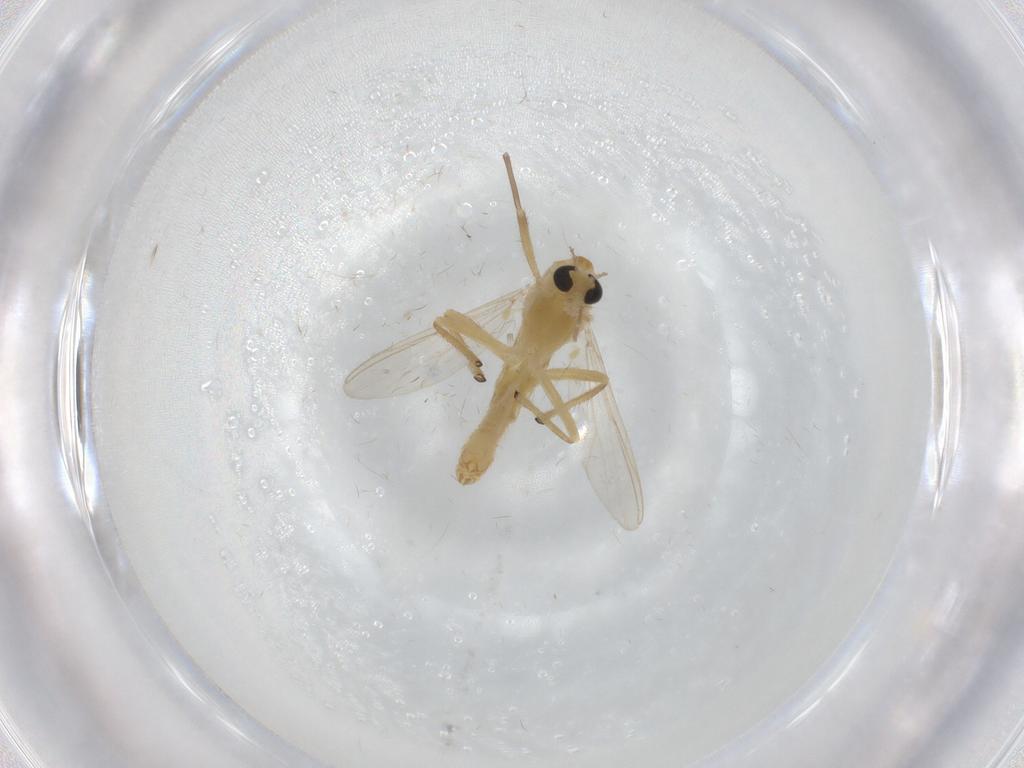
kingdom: Animalia
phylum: Arthropoda
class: Insecta
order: Diptera
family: Chironomidae
